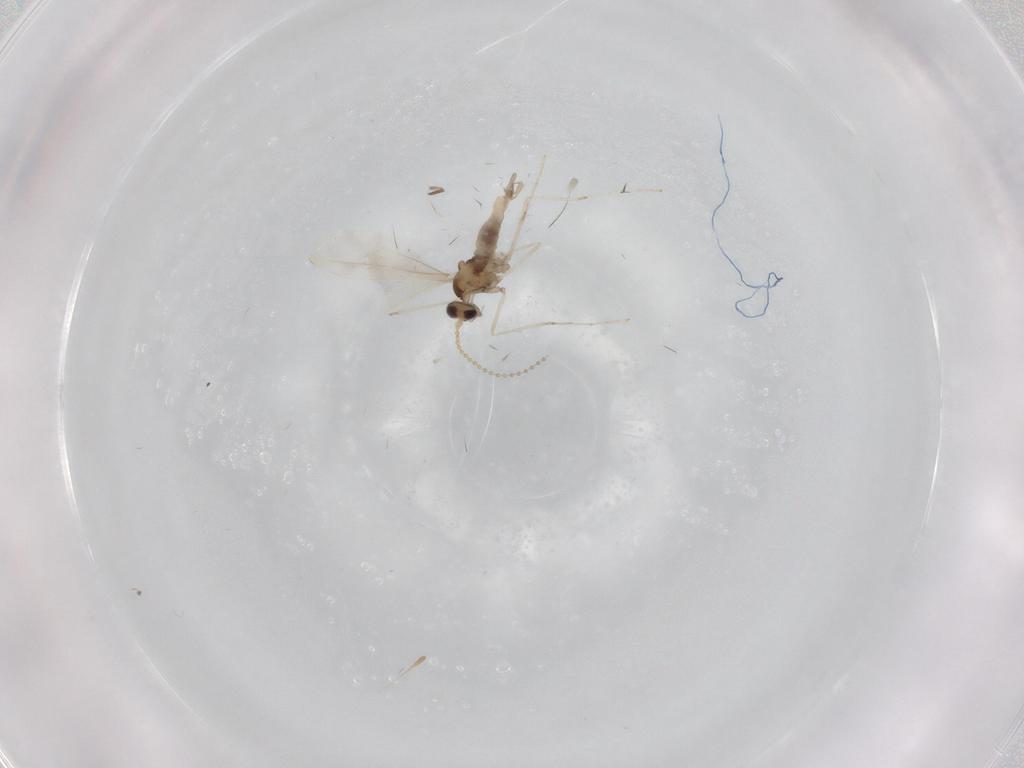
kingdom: Animalia
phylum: Arthropoda
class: Insecta
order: Diptera
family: Cecidomyiidae
